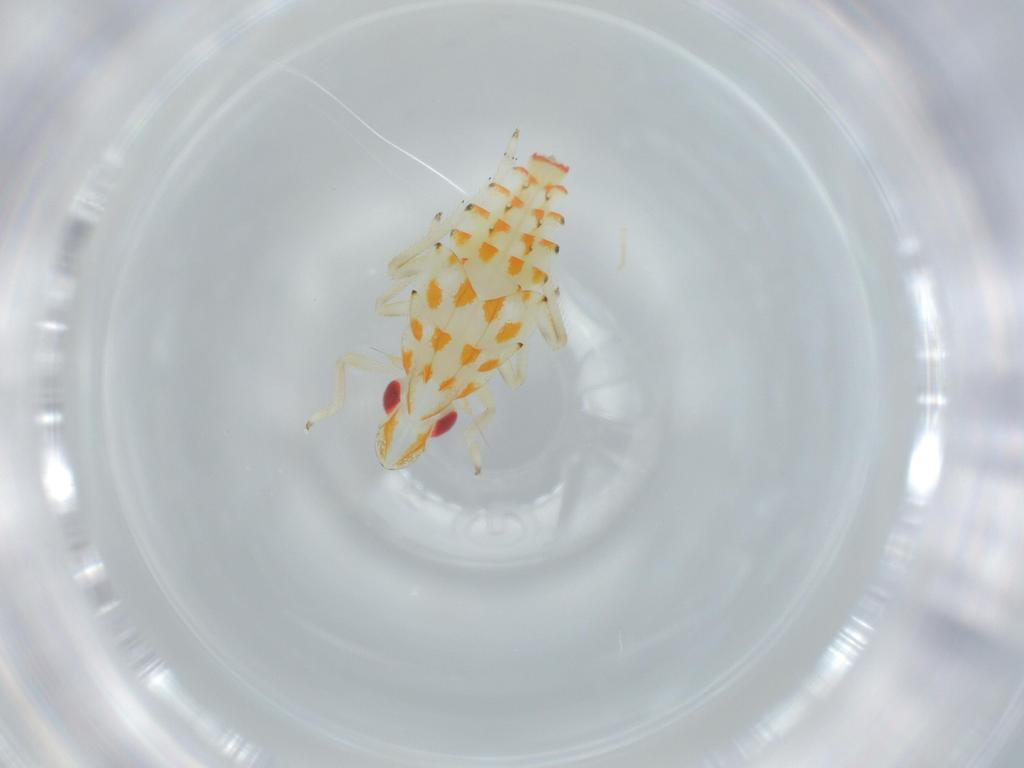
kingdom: Animalia
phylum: Arthropoda
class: Insecta
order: Hemiptera
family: Tropiduchidae
